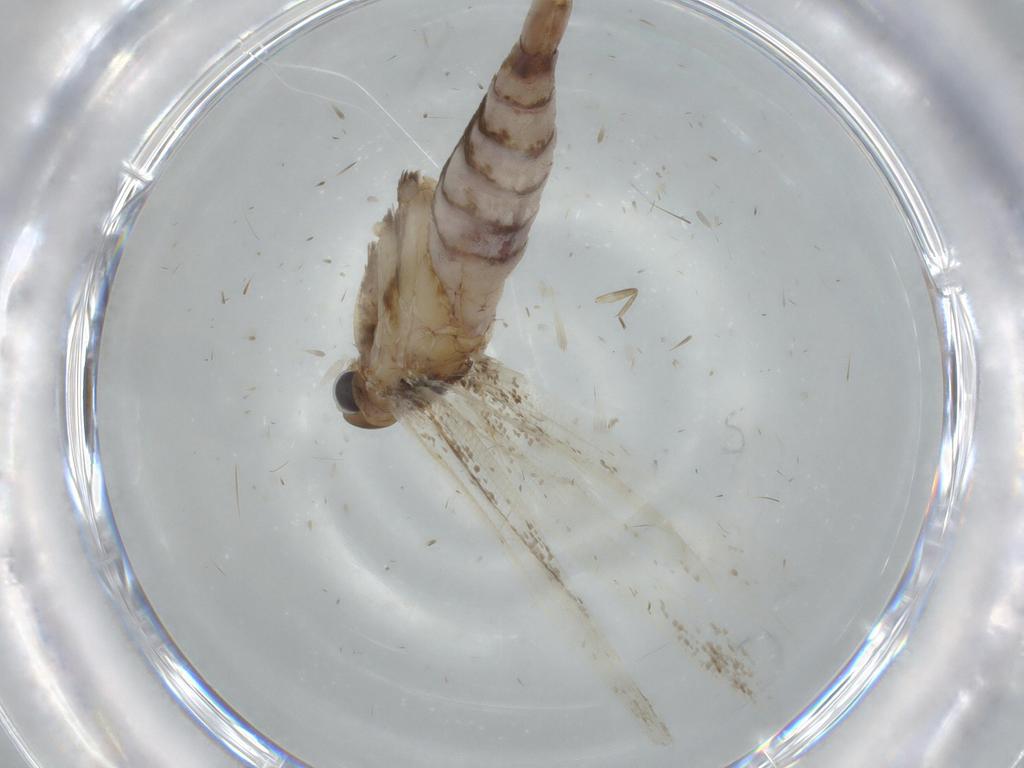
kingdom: Animalia
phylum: Arthropoda
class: Insecta
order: Lepidoptera
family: Gelechiidae
